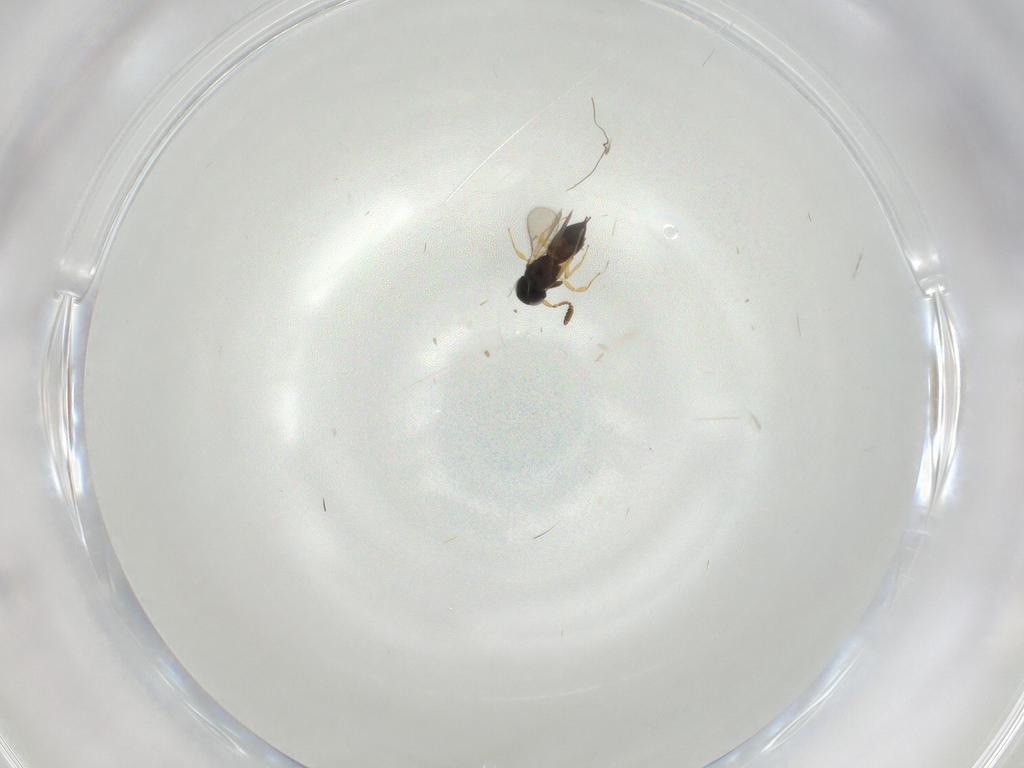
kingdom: Animalia
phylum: Arthropoda
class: Insecta
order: Hymenoptera
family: Scelionidae
